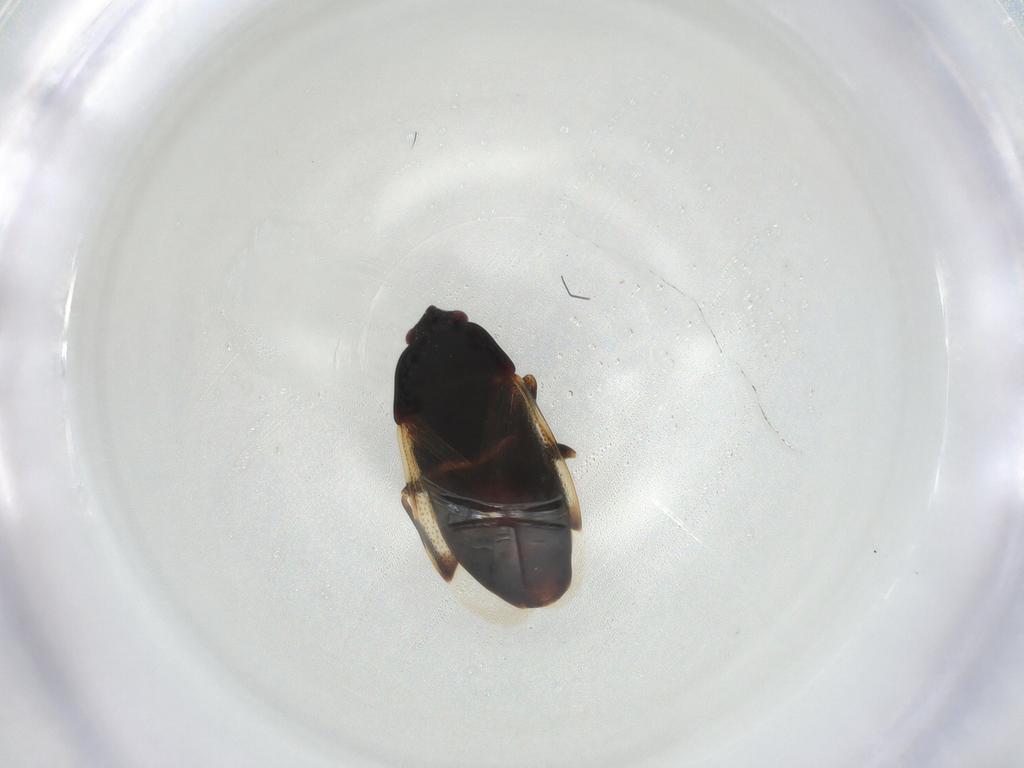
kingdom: Animalia
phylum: Arthropoda
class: Insecta
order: Hemiptera
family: Rhyparochromidae
